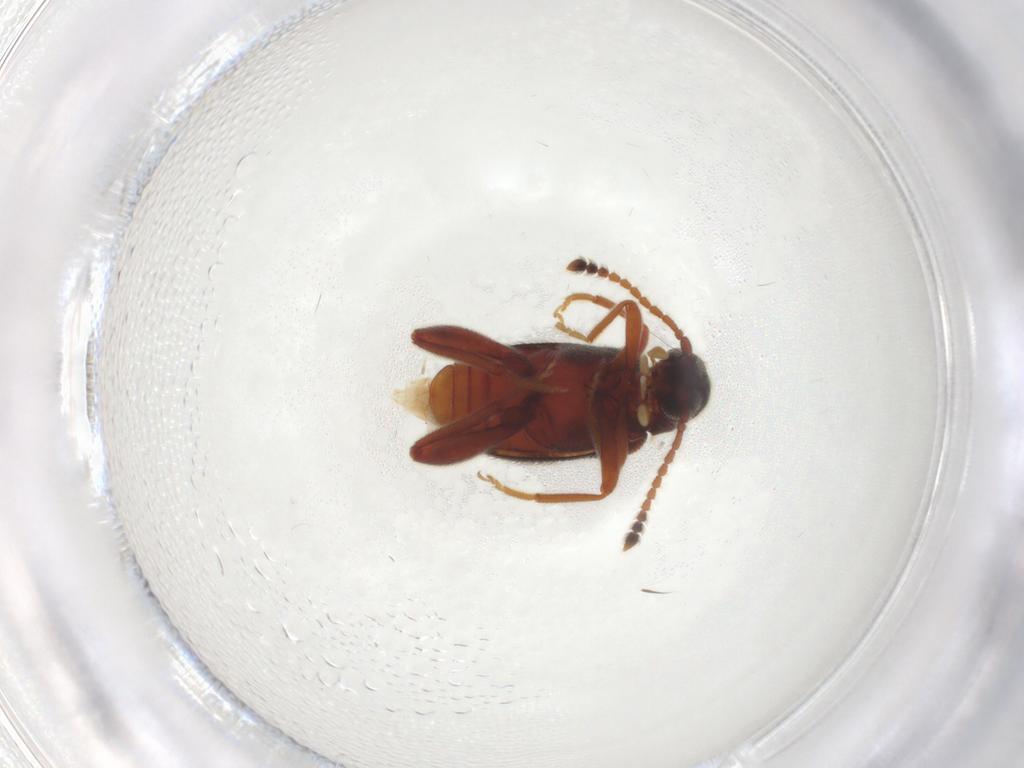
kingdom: Animalia
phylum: Arthropoda
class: Insecta
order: Coleoptera
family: Aderidae
